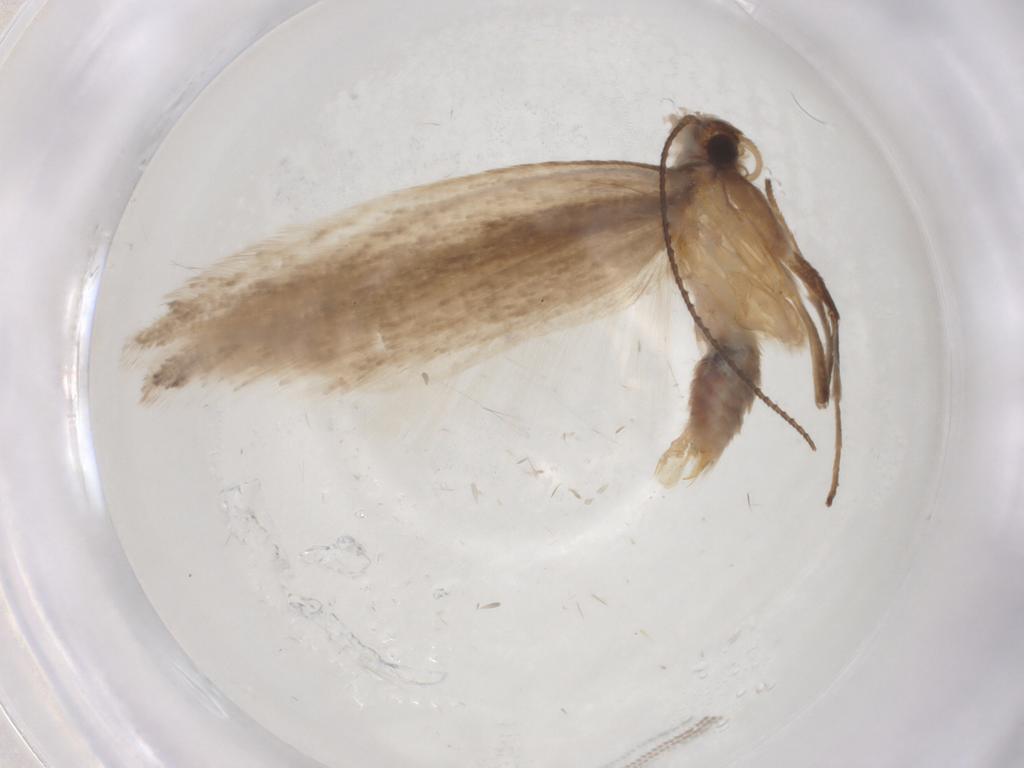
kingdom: Animalia
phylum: Arthropoda
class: Insecta
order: Lepidoptera
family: Gelechiidae
